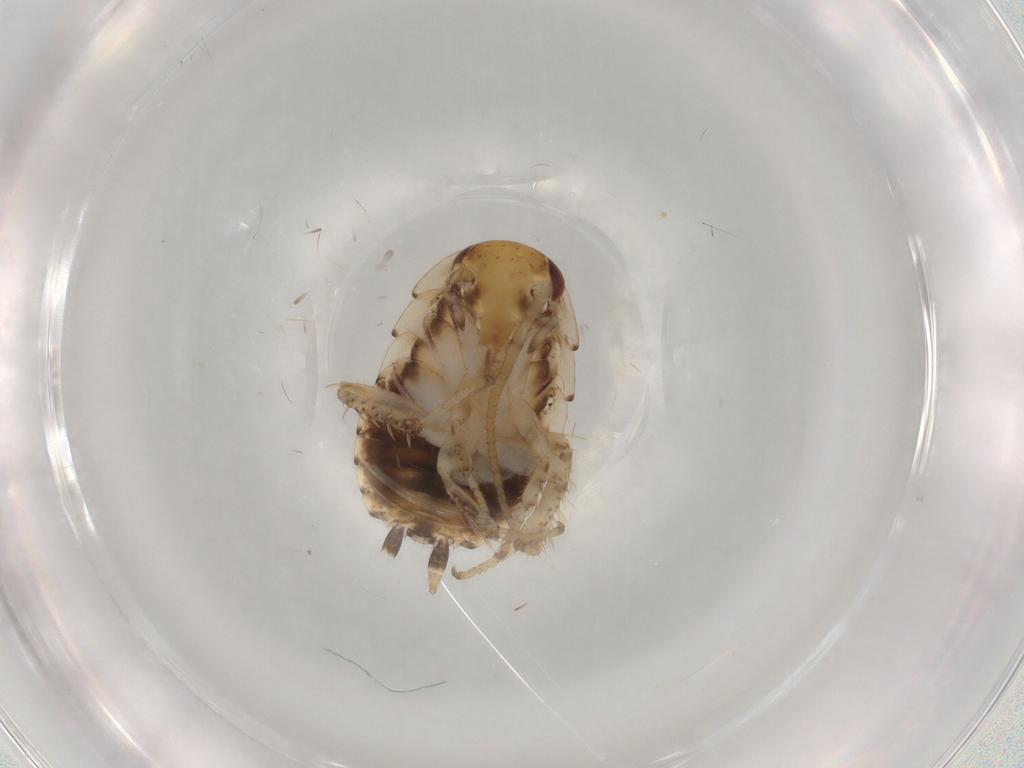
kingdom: Animalia
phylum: Arthropoda
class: Insecta
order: Blattodea
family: Blaberidae
